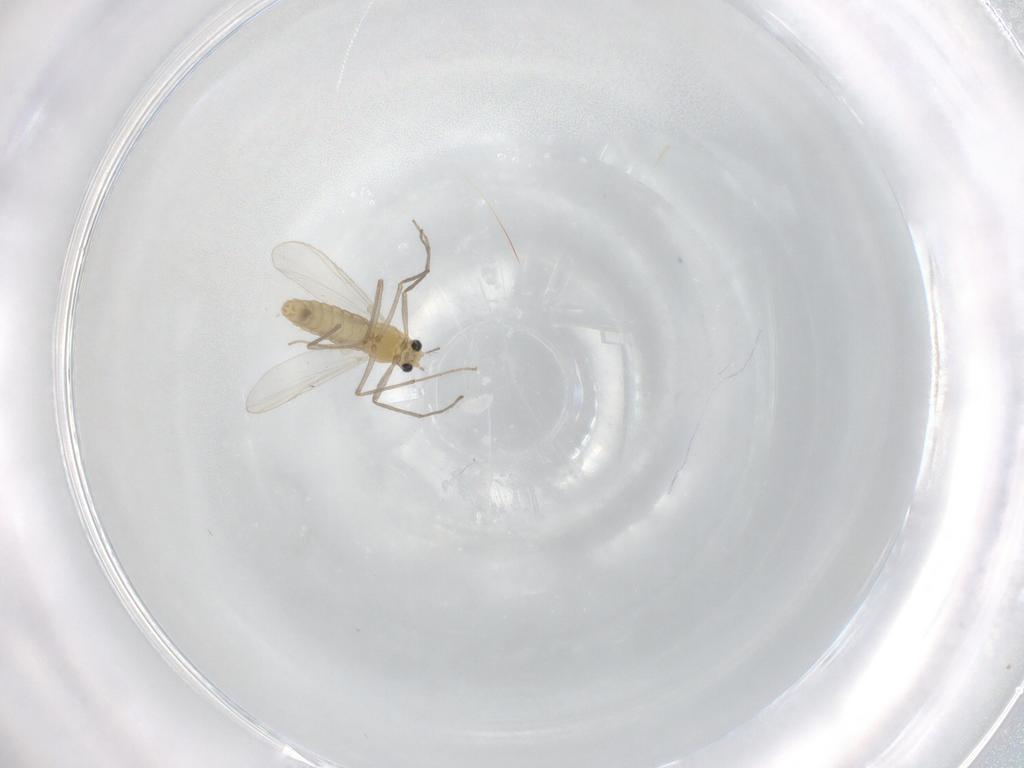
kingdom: Animalia
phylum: Arthropoda
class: Insecta
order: Diptera
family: Chironomidae
